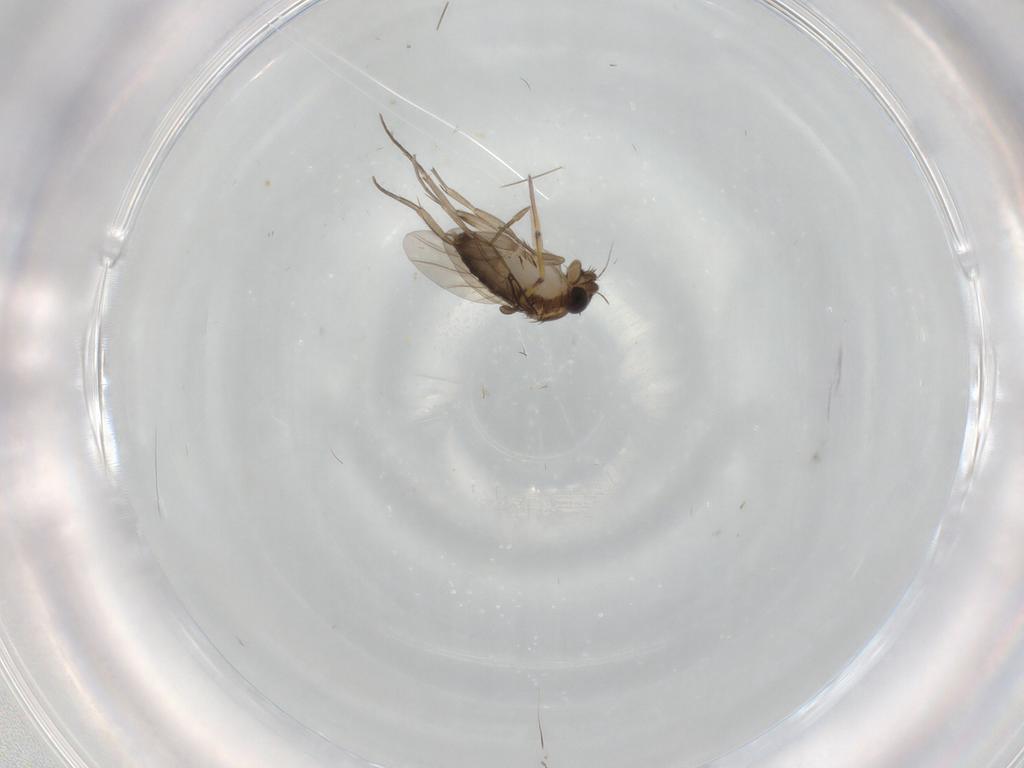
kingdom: Animalia
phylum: Arthropoda
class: Insecta
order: Diptera
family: Phoridae
